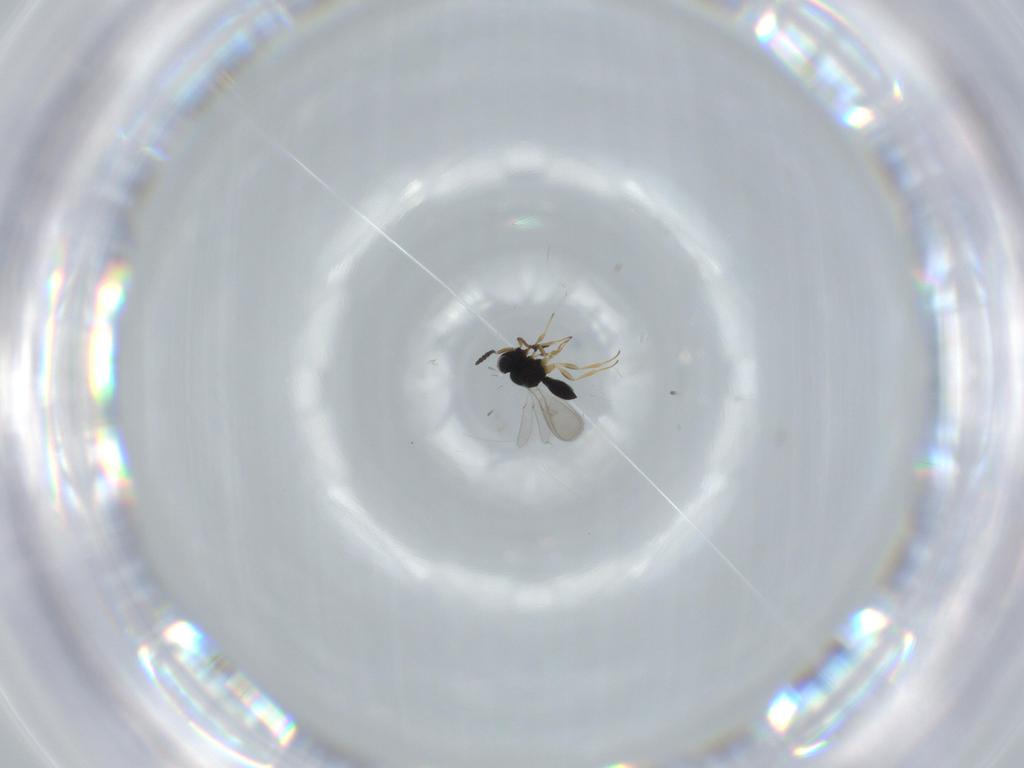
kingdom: Animalia
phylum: Arthropoda
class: Insecta
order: Hymenoptera
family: Scelionidae
